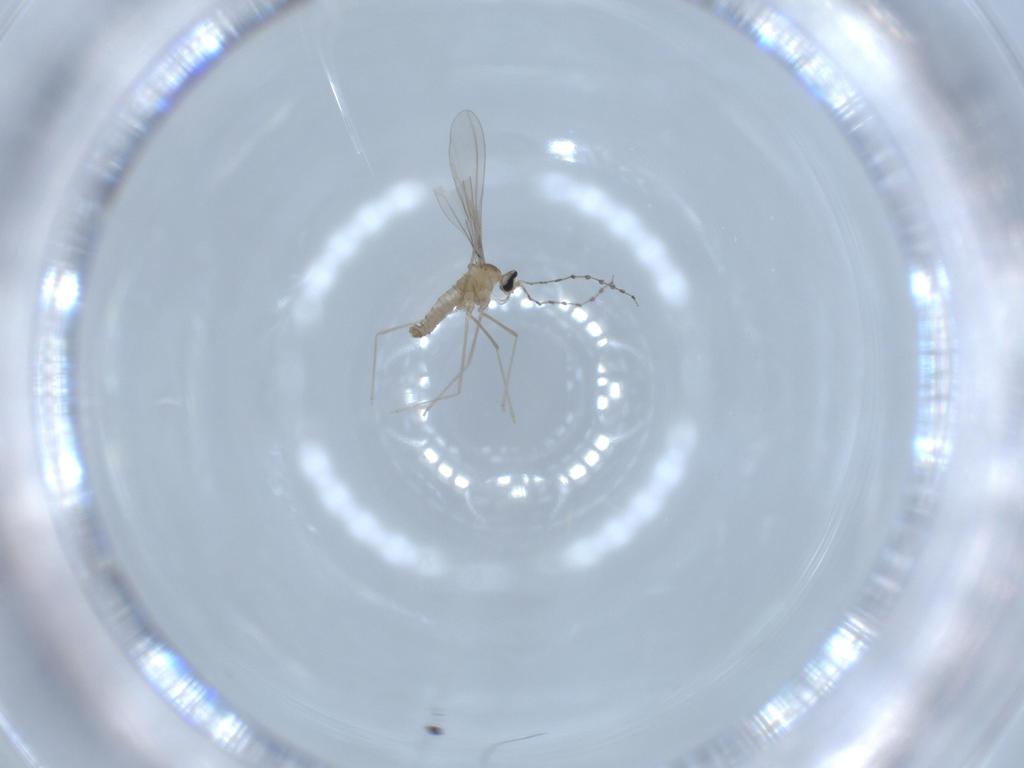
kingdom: Animalia
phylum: Arthropoda
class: Insecta
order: Diptera
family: Cecidomyiidae
